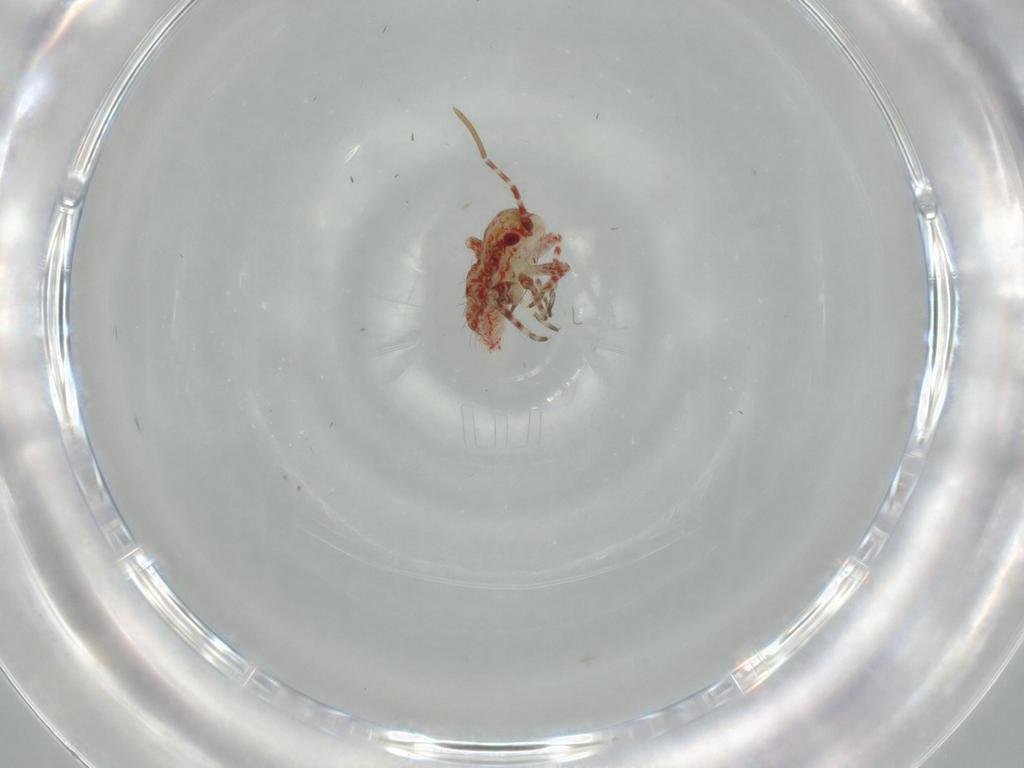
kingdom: Animalia
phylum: Arthropoda
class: Insecta
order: Hemiptera
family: Miridae
